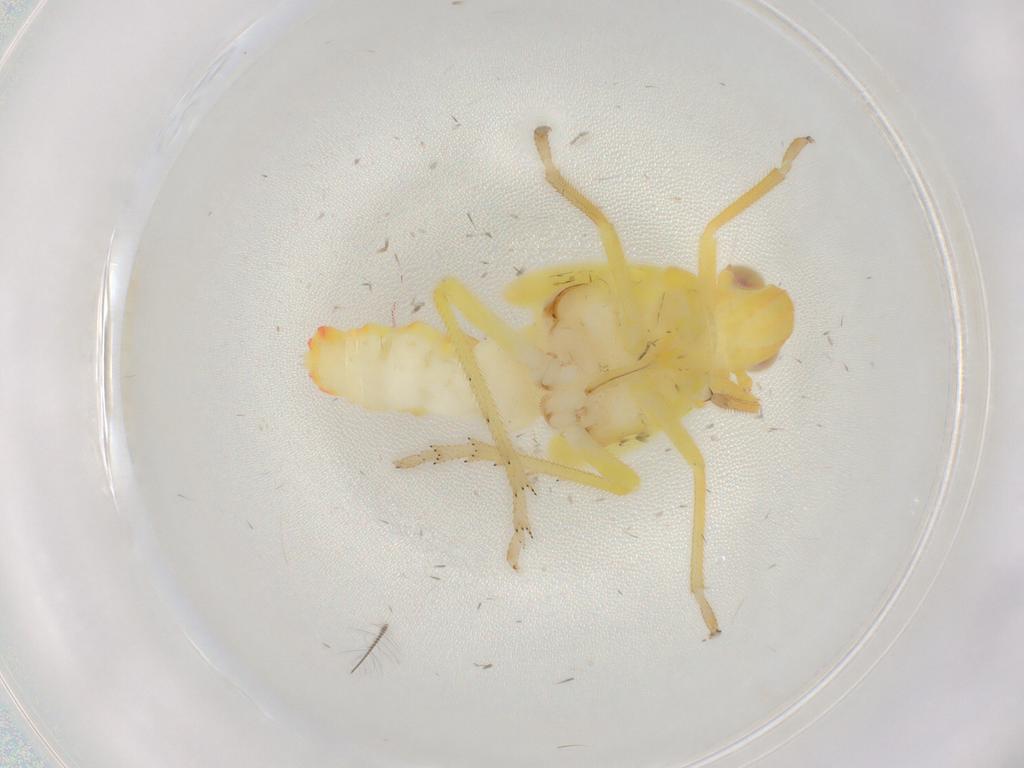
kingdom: Animalia
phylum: Arthropoda
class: Insecta
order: Hemiptera
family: Tropiduchidae
